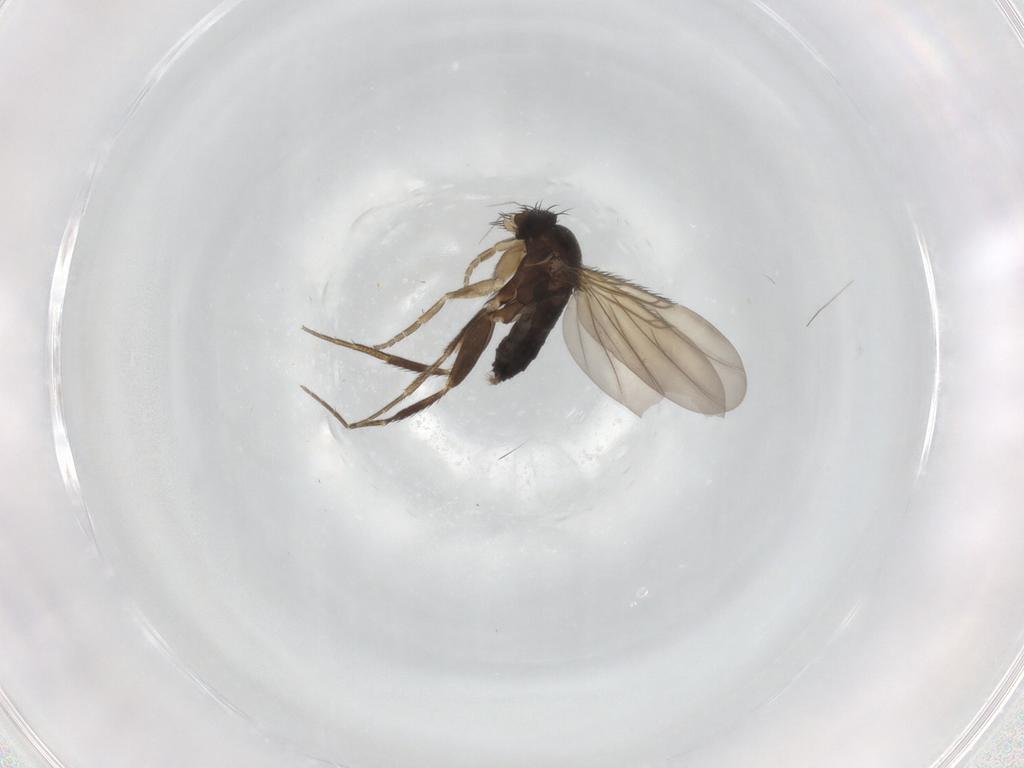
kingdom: Animalia
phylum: Arthropoda
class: Insecta
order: Diptera
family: Phoridae
